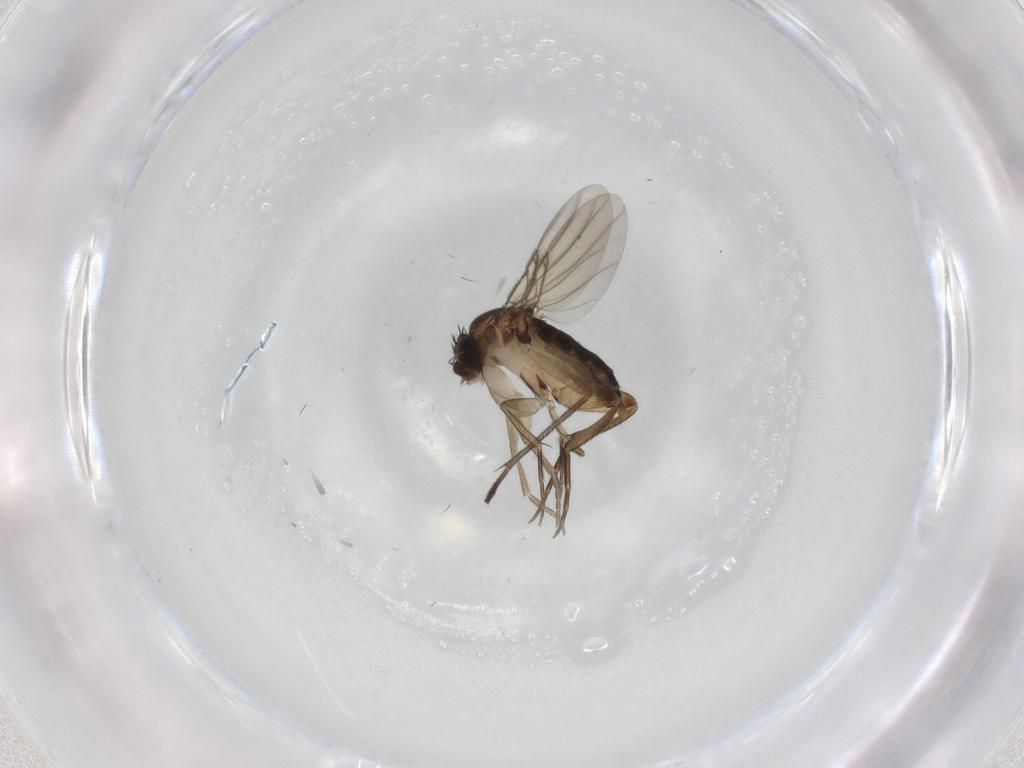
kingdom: Animalia
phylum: Arthropoda
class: Insecta
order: Diptera
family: Phoridae
